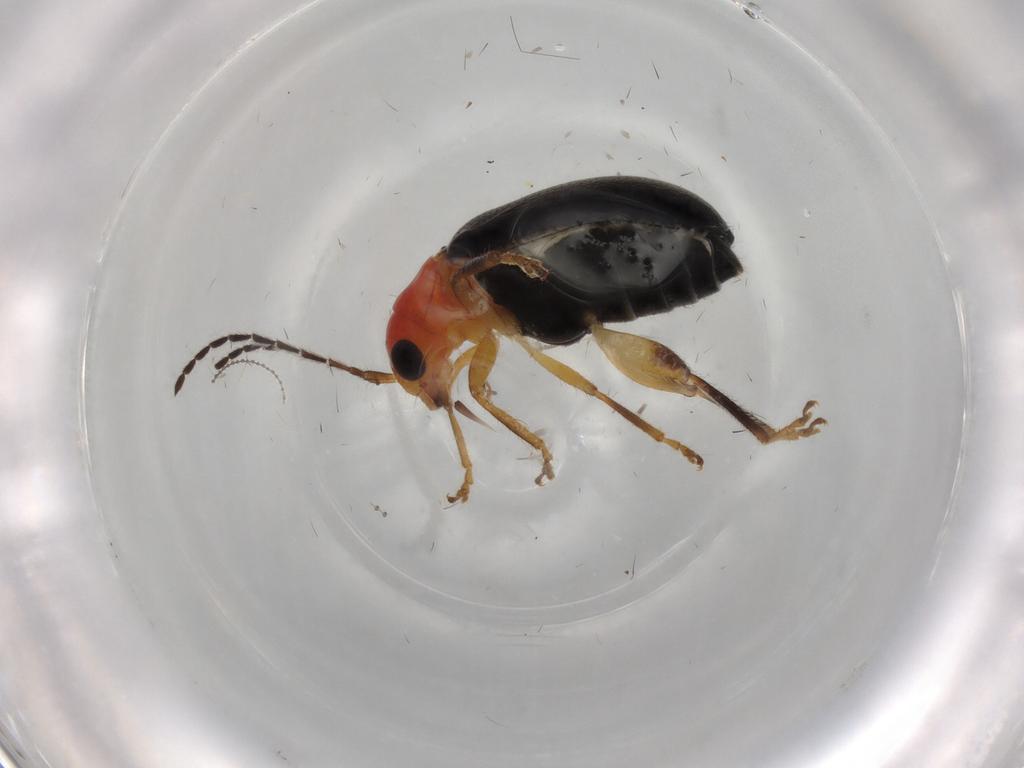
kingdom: Animalia
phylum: Arthropoda
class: Insecta
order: Coleoptera
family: Chrysomelidae
